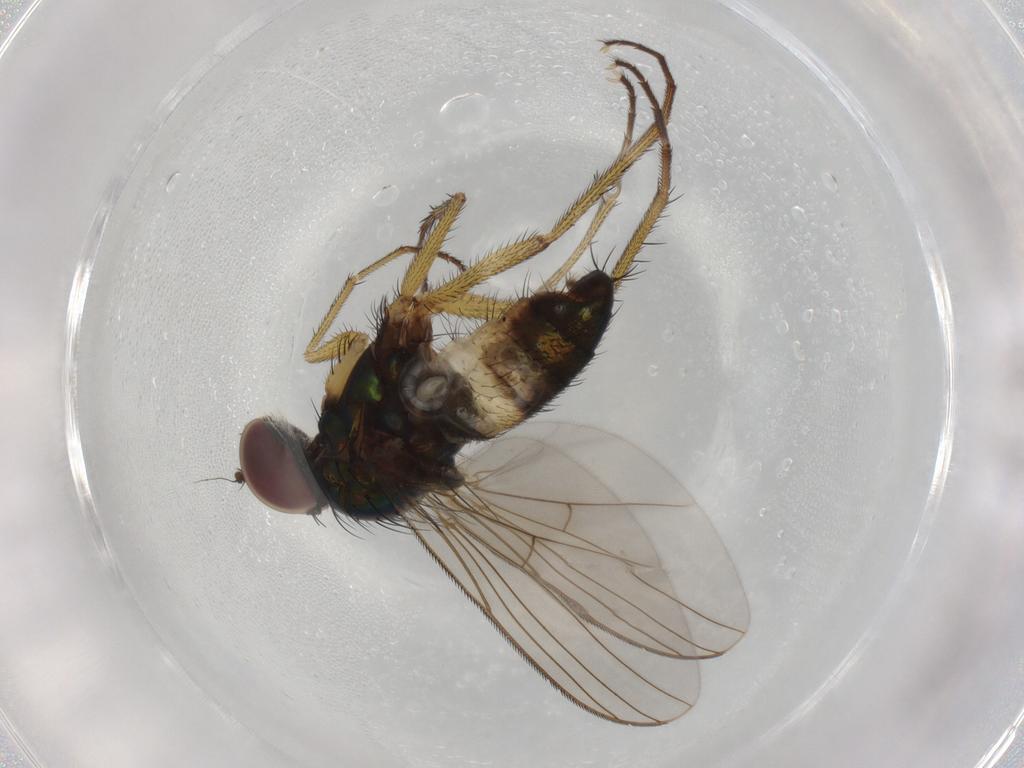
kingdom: Animalia
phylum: Arthropoda
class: Insecta
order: Diptera
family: Dolichopodidae
